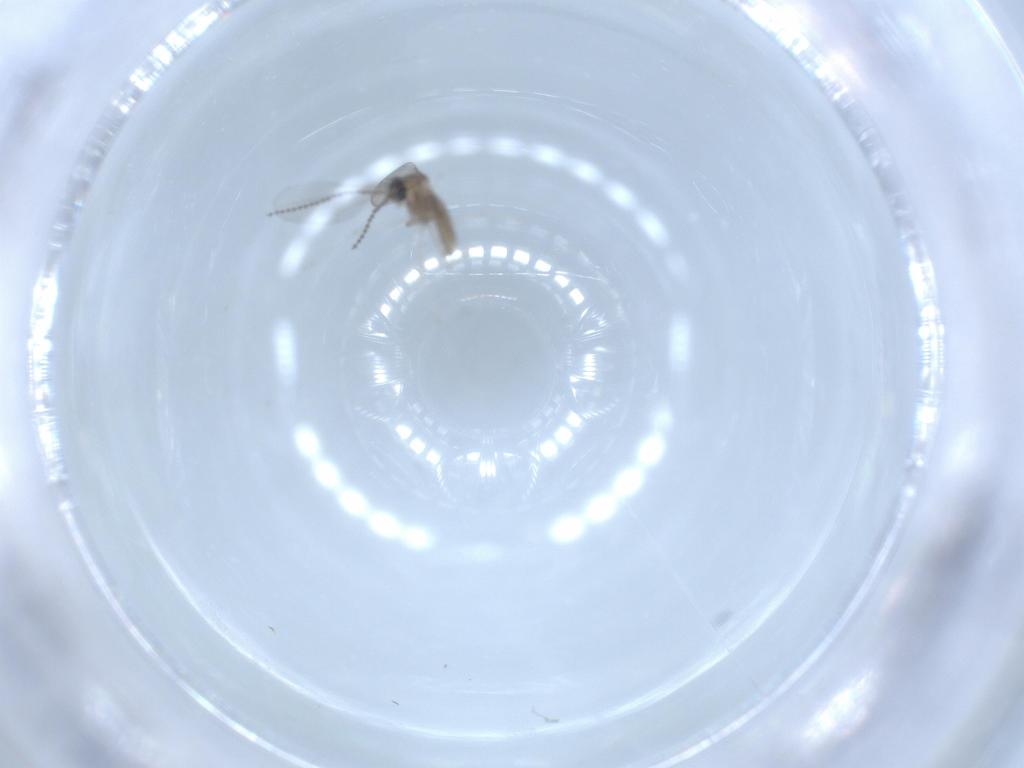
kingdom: Animalia
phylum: Arthropoda
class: Insecta
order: Diptera
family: Cecidomyiidae
